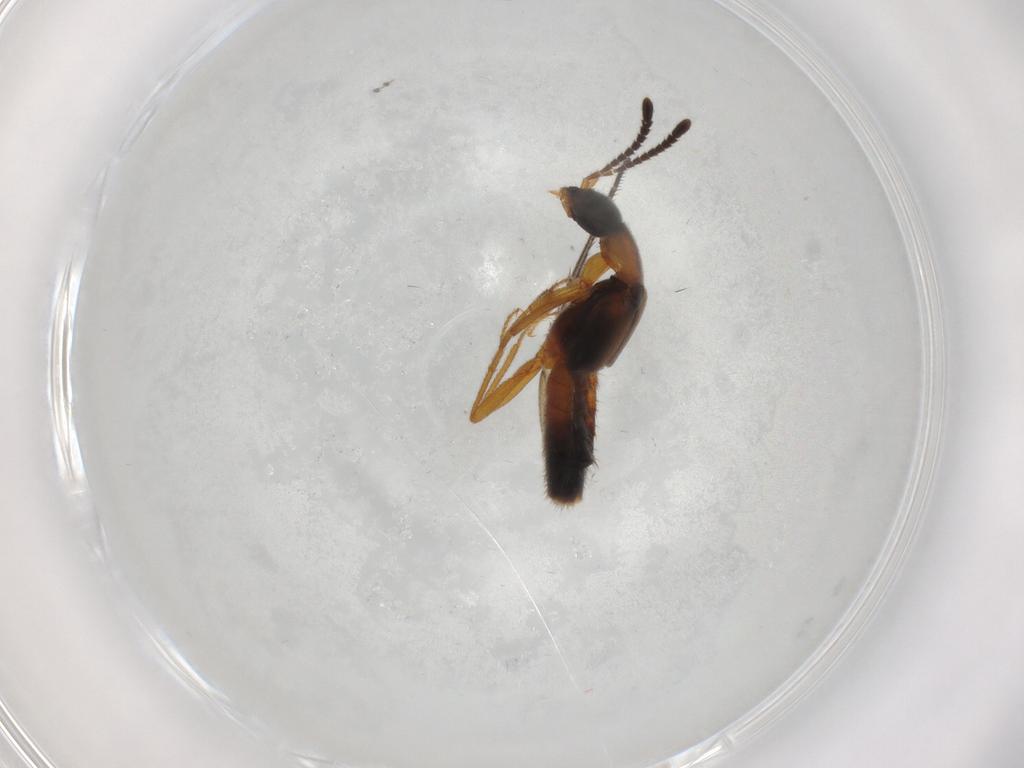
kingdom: Animalia
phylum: Arthropoda
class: Insecta
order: Coleoptera
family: Staphylinidae
